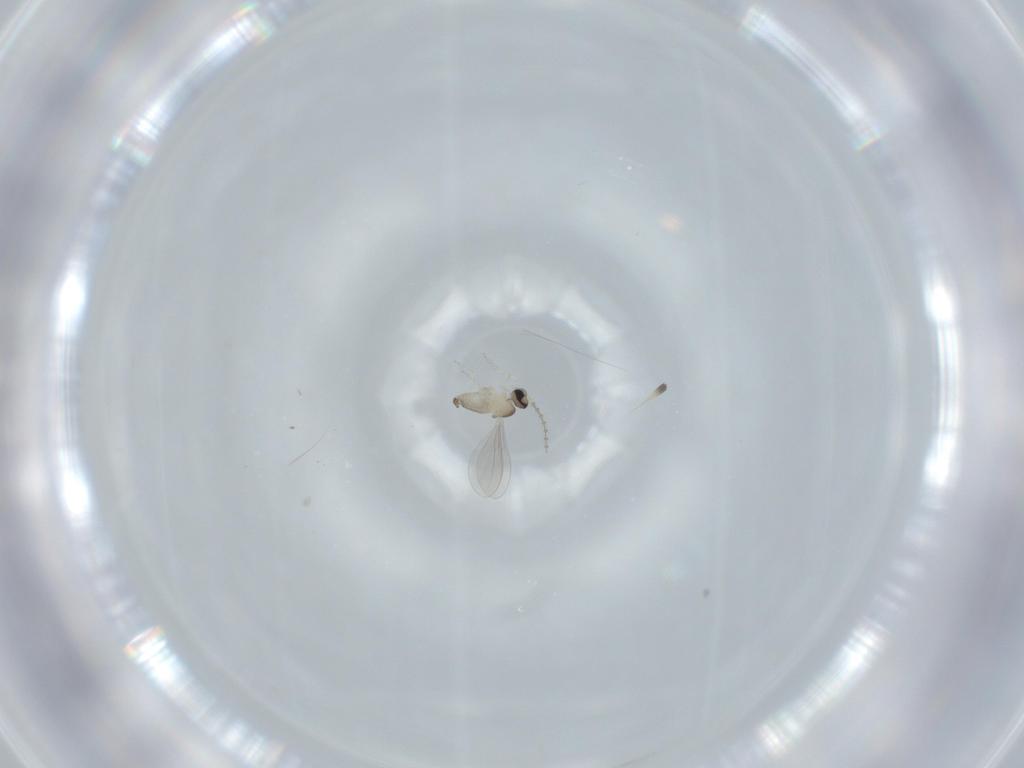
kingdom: Animalia
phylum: Arthropoda
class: Insecta
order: Diptera
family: Cecidomyiidae
